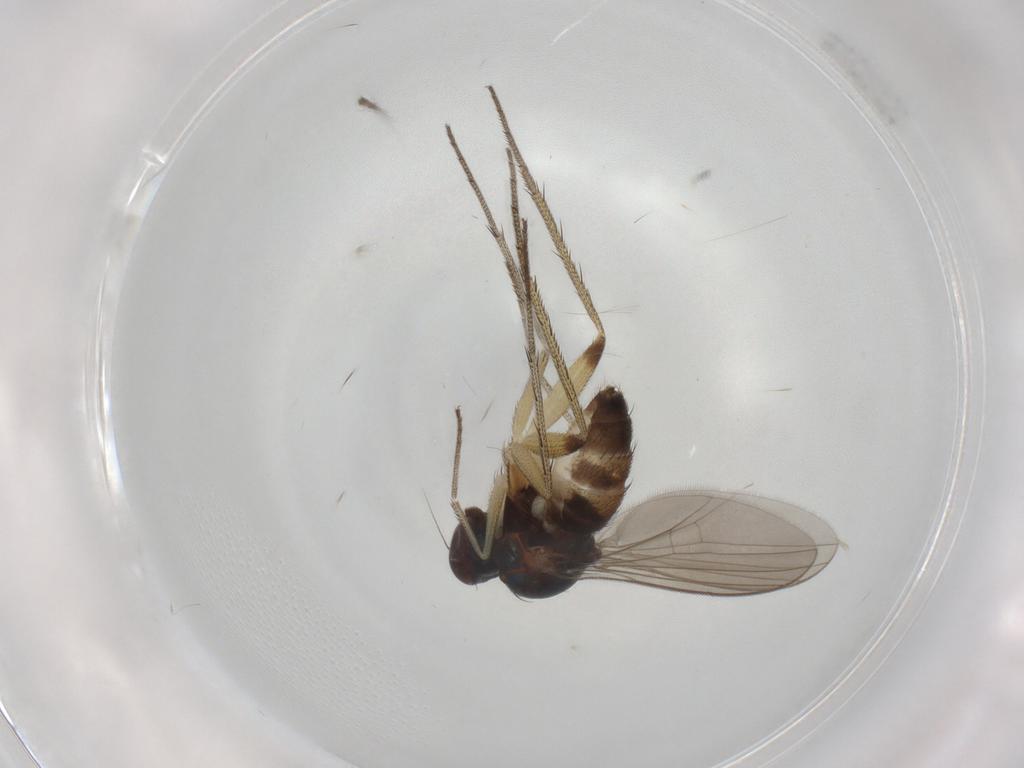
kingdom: Animalia
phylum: Arthropoda
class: Insecta
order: Diptera
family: Dolichopodidae
